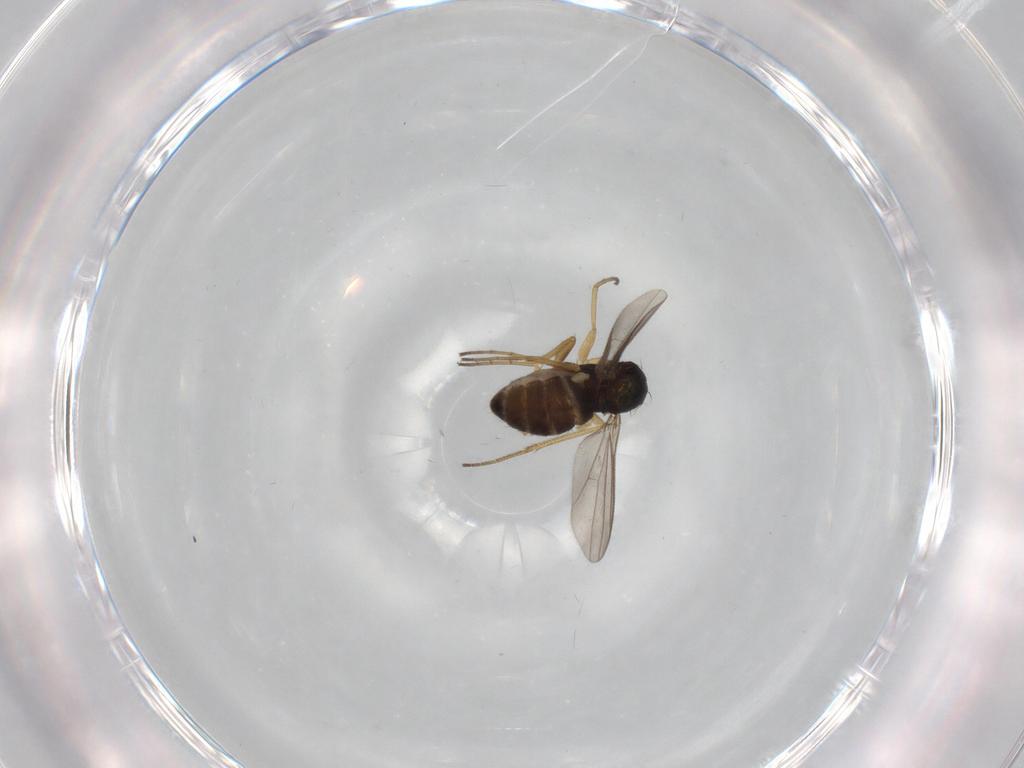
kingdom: Animalia
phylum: Arthropoda
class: Insecta
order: Diptera
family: Dolichopodidae
